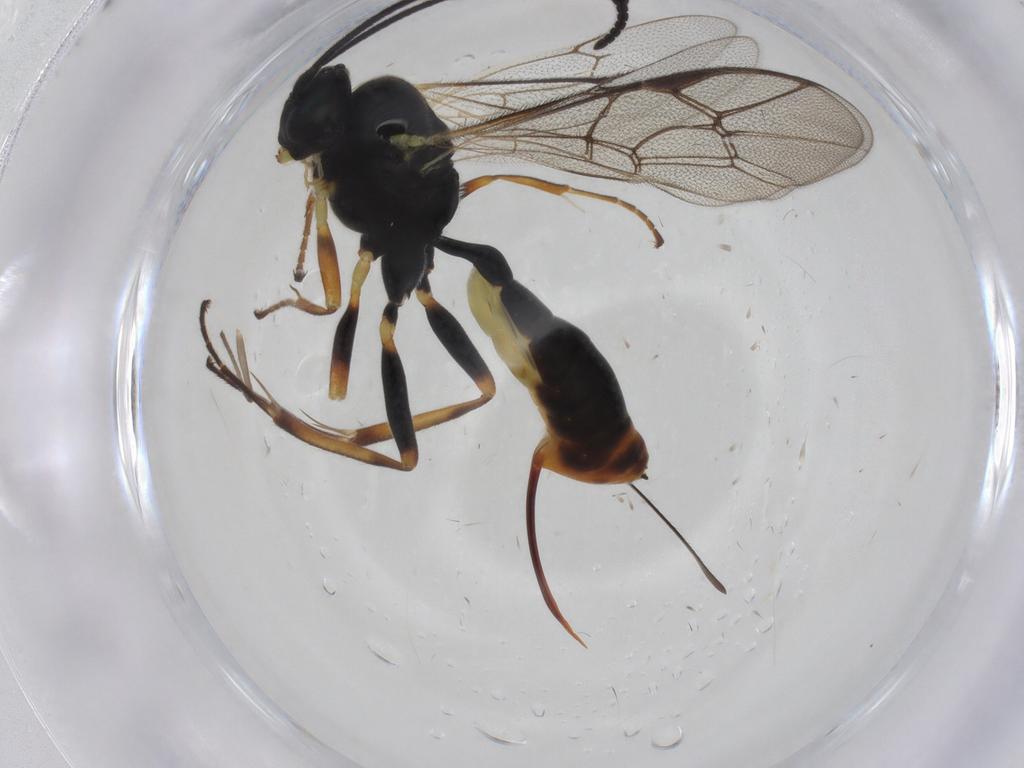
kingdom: Animalia
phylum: Arthropoda
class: Insecta
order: Hymenoptera
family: Ichneumonidae
